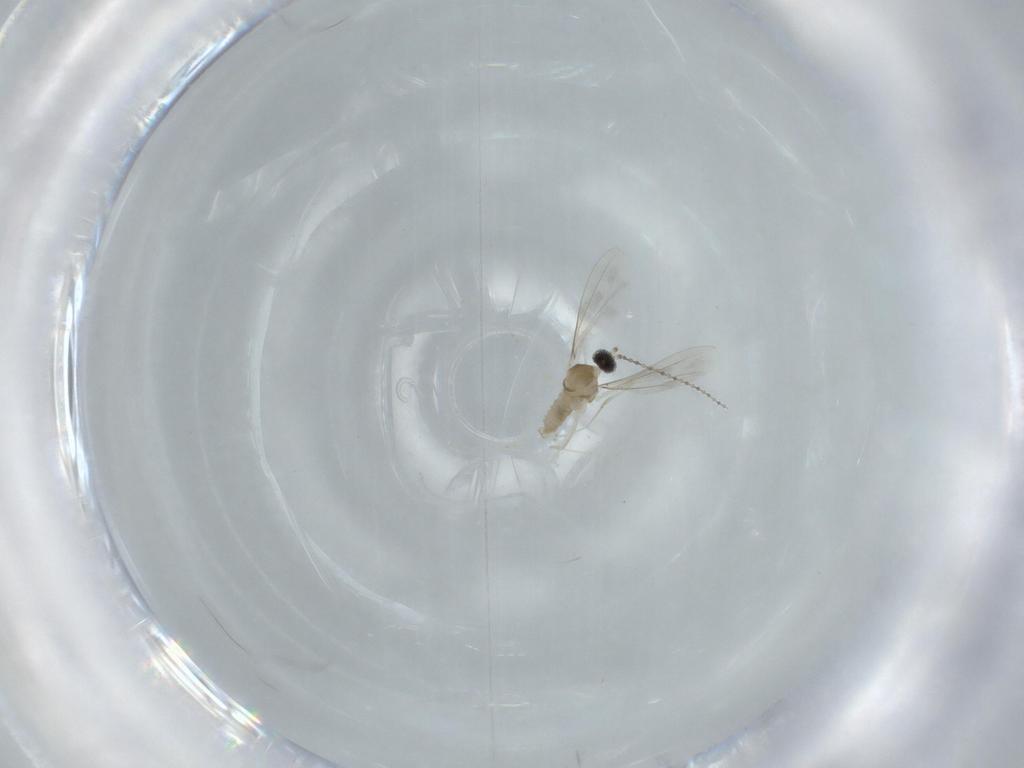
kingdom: Animalia
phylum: Arthropoda
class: Insecta
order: Diptera
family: Cecidomyiidae
